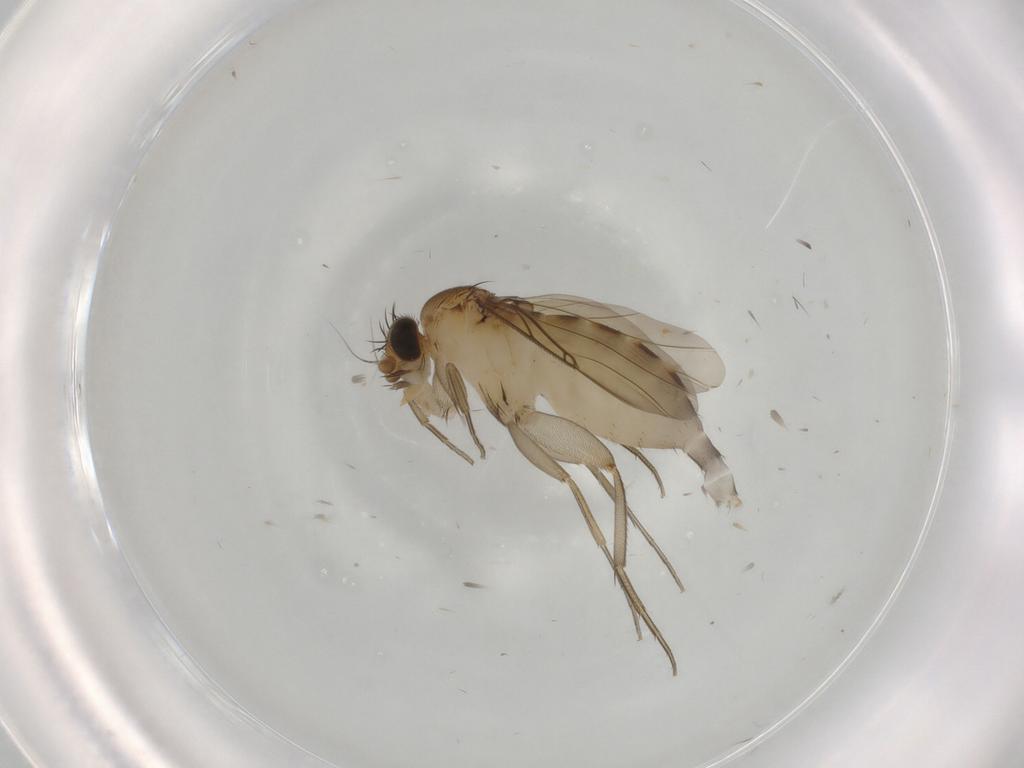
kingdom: Animalia
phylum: Arthropoda
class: Insecta
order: Diptera
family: Phoridae
